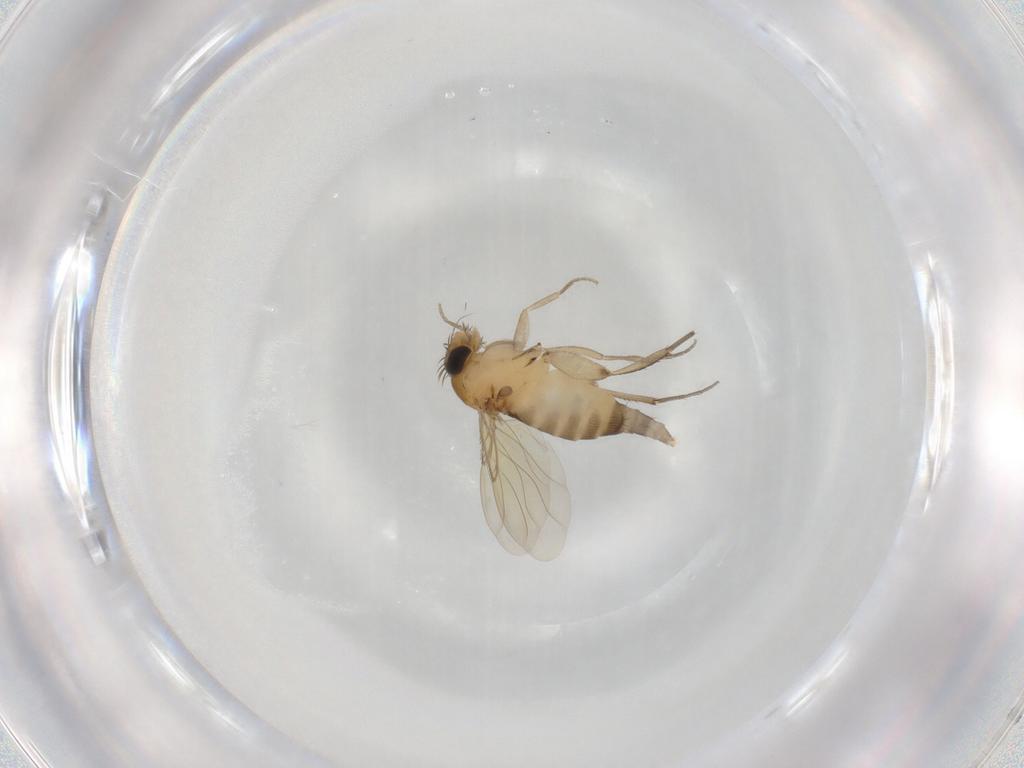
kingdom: Animalia
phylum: Arthropoda
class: Insecta
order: Diptera
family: Phoridae
